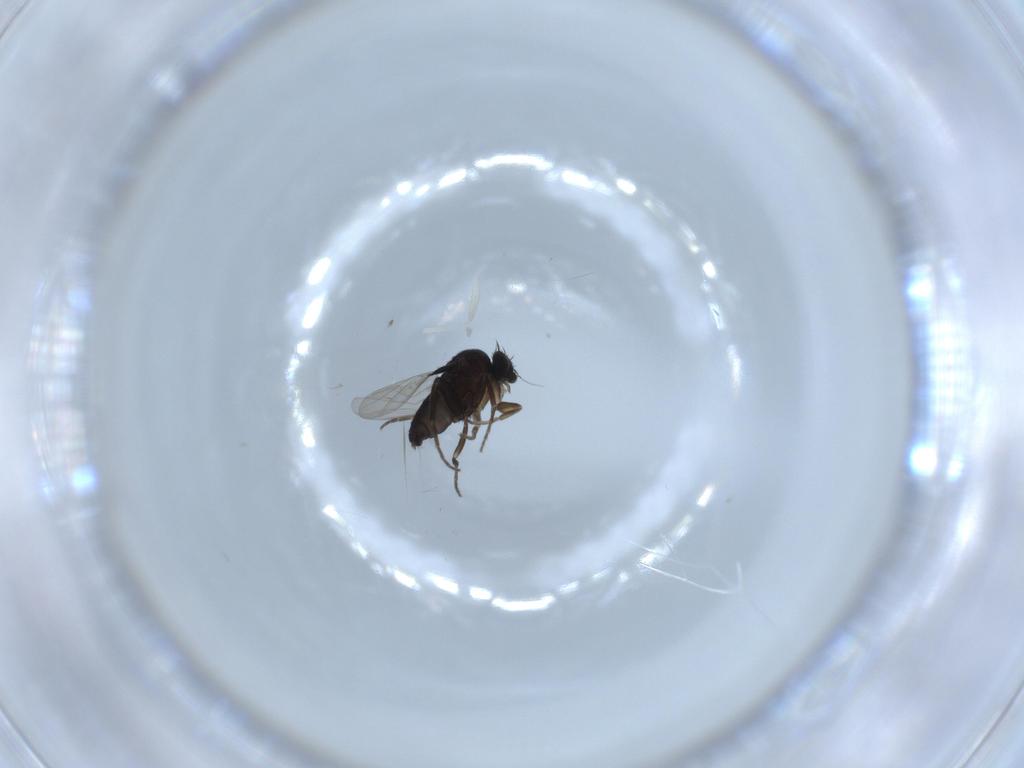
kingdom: Animalia
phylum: Arthropoda
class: Insecta
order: Diptera
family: Phoridae
